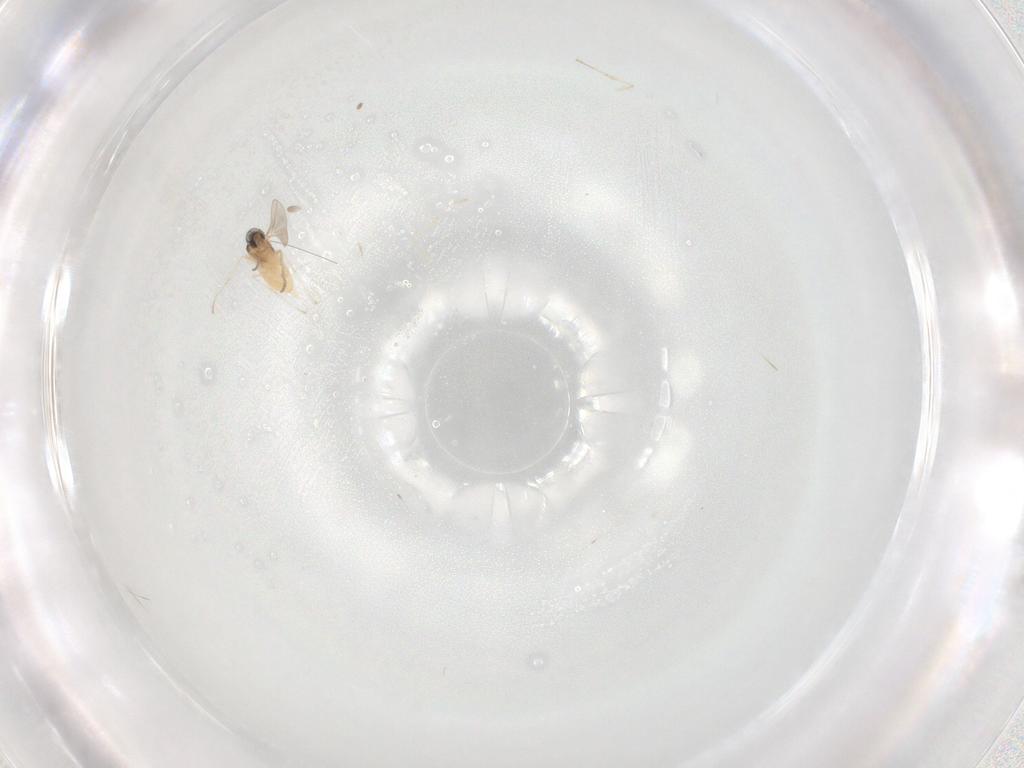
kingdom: Animalia
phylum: Arthropoda
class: Insecta
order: Diptera
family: Cecidomyiidae
